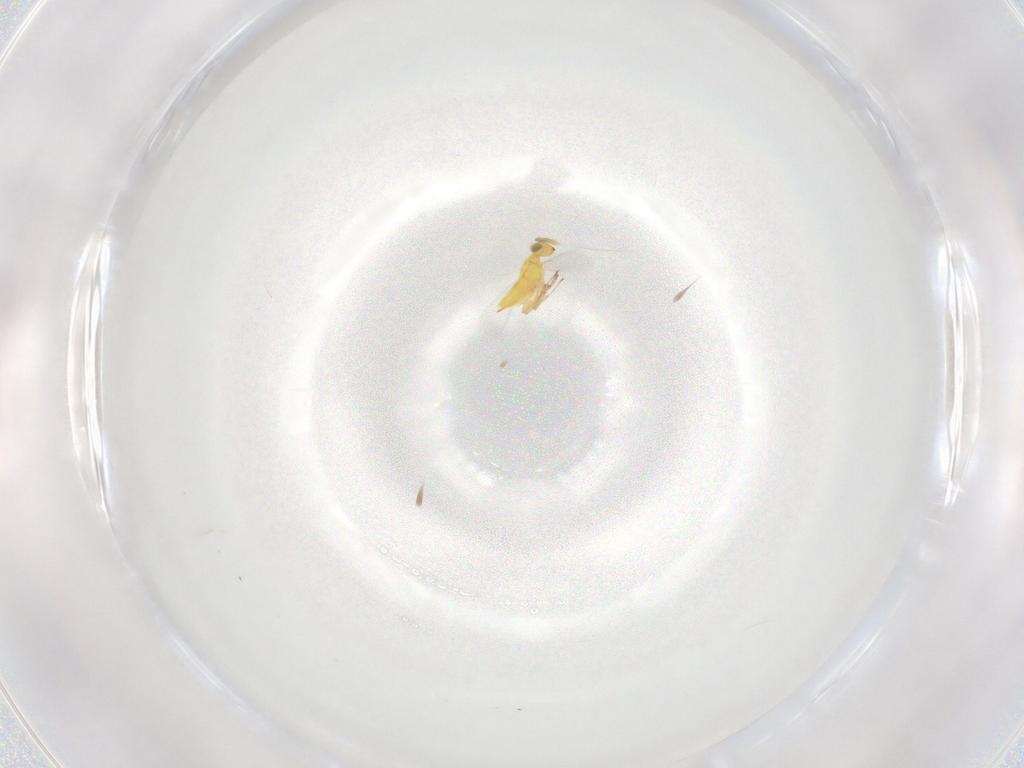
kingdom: Animalia
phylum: Arthropoda
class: Insecta
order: Hymenoptera
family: Aphelinidae
